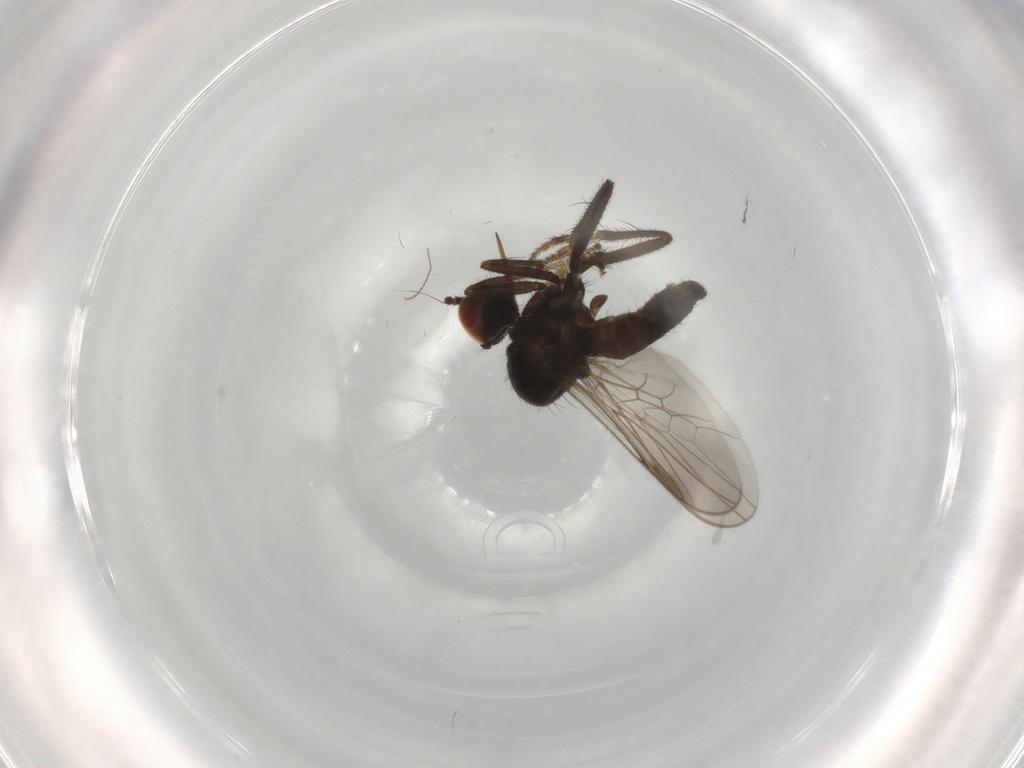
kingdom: Animalia
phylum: Arthropoda
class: Insecta
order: Diptera
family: Hybotidae
